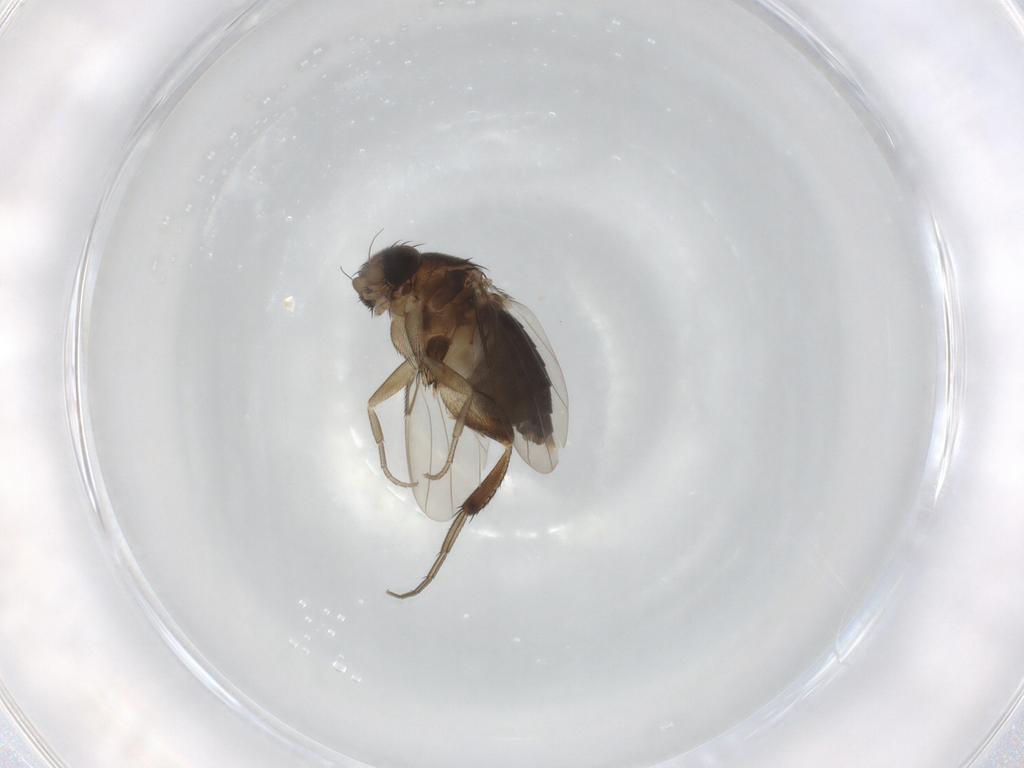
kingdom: Animalia
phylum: Arthropoda
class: Insecta
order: Diptera
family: Phoridae
